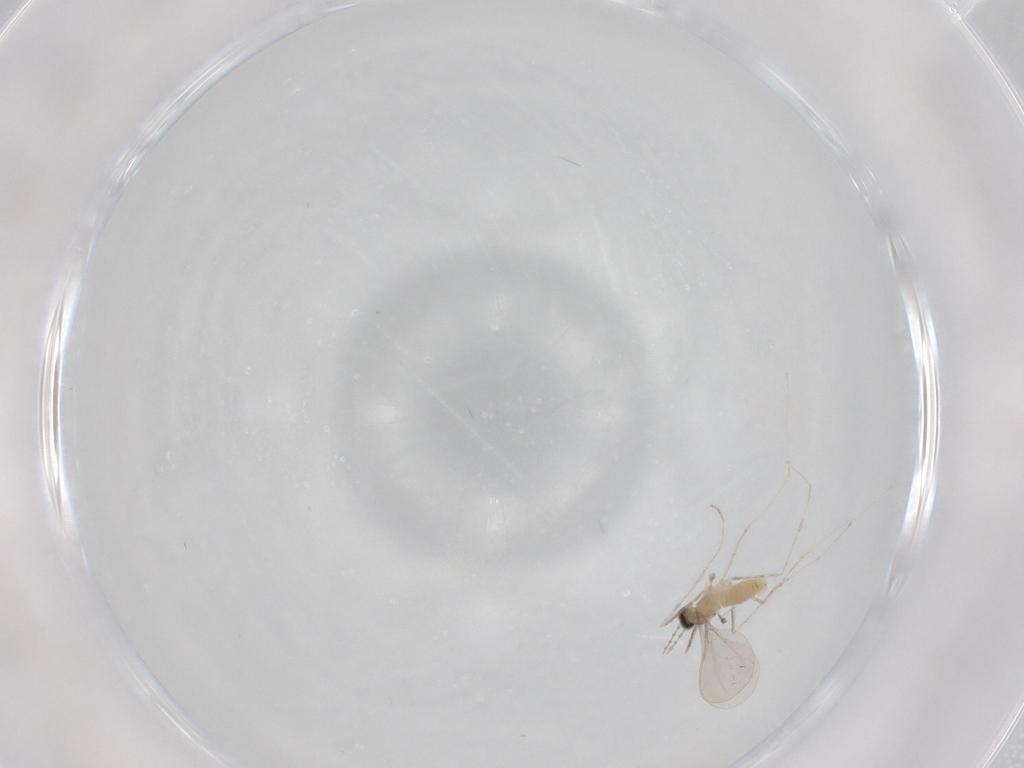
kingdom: Animalia
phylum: Arthropoda
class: Insecta
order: Diptera
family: Cecidomyiidae
